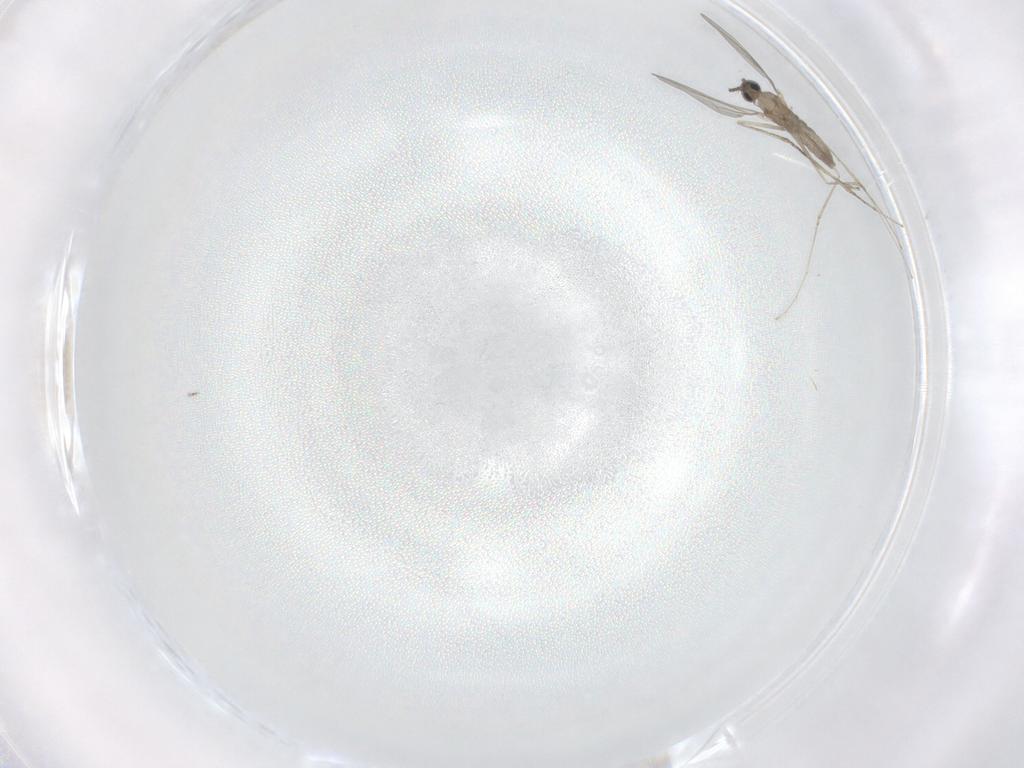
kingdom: Animalia
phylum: Arthropoda
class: Insecta
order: Diptera
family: Ceratopogonidae
